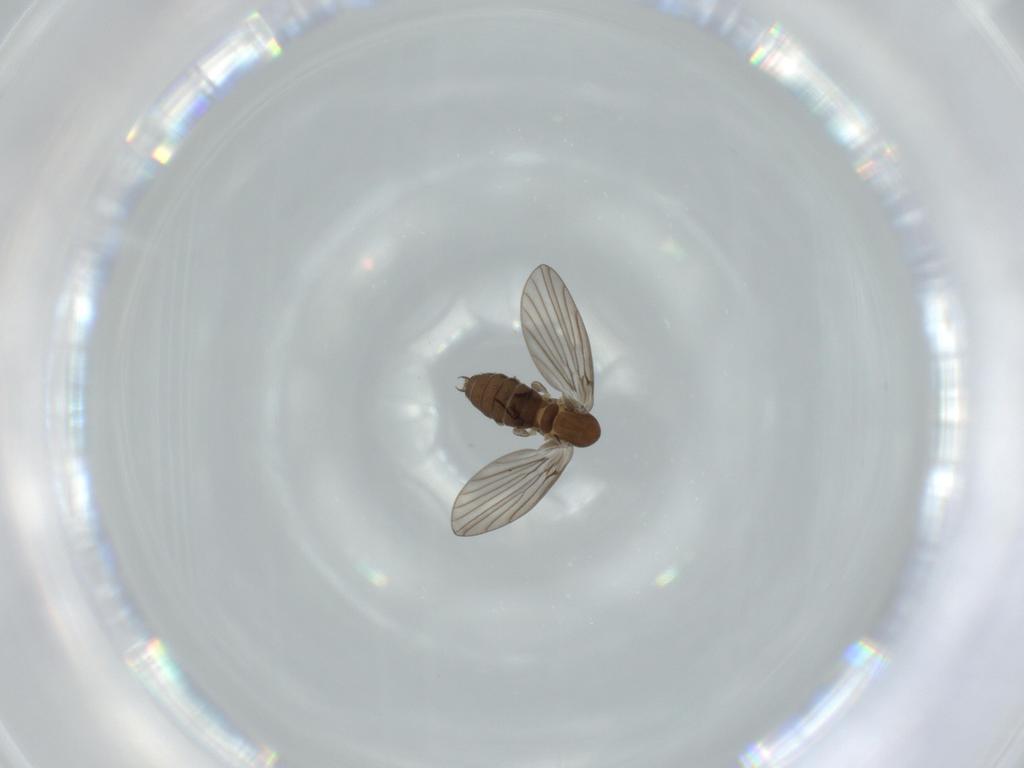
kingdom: Animalia
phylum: Arthropoda
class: Insecta
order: Diptera
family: Psychodidae
